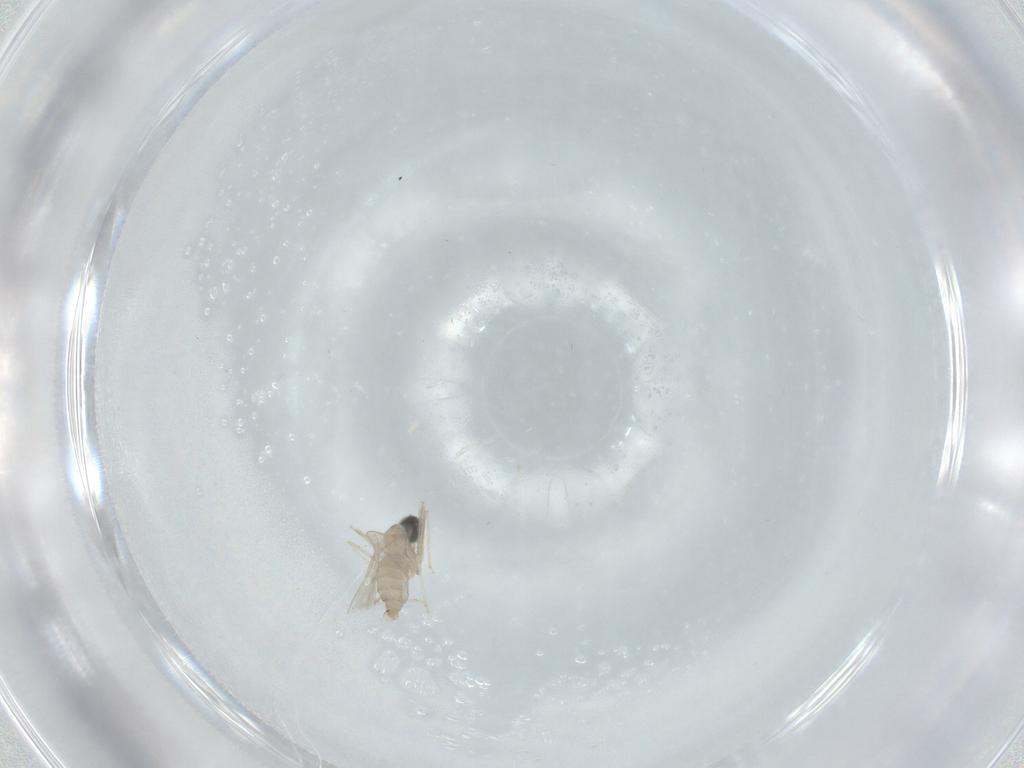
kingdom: Animalia
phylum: Arthropoda
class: Insecta
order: Diptera
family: Cecidomyiidae
